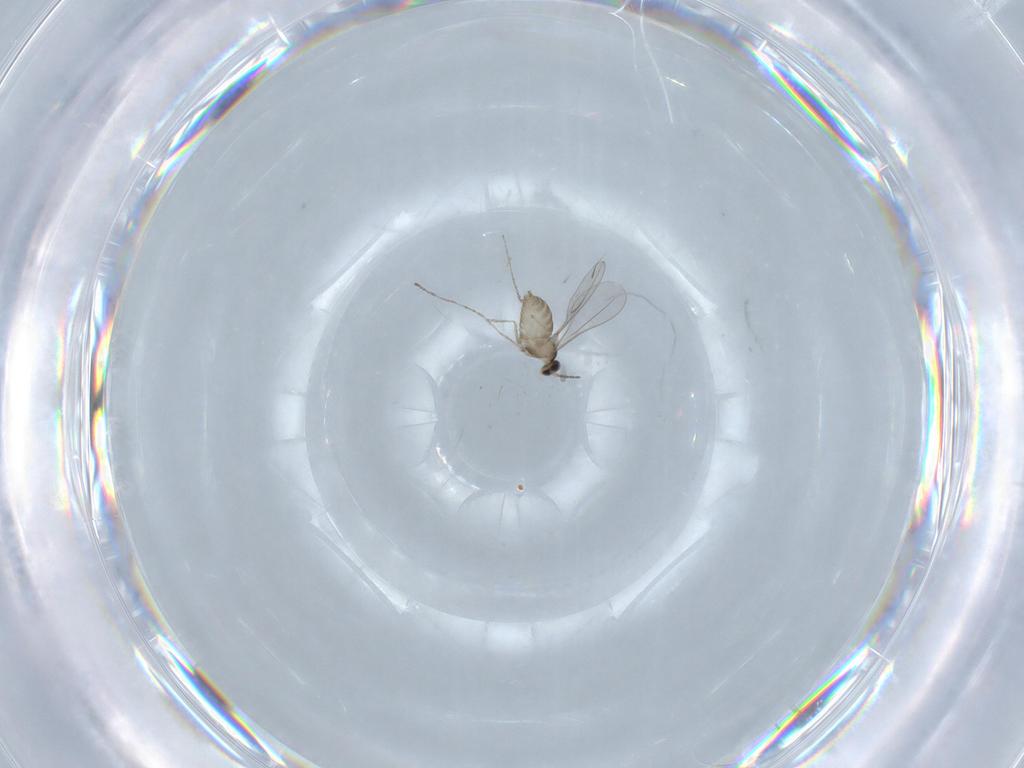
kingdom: Animalia
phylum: Arthropoda
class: Insecta
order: Diptera
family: Cecidomyiidae
